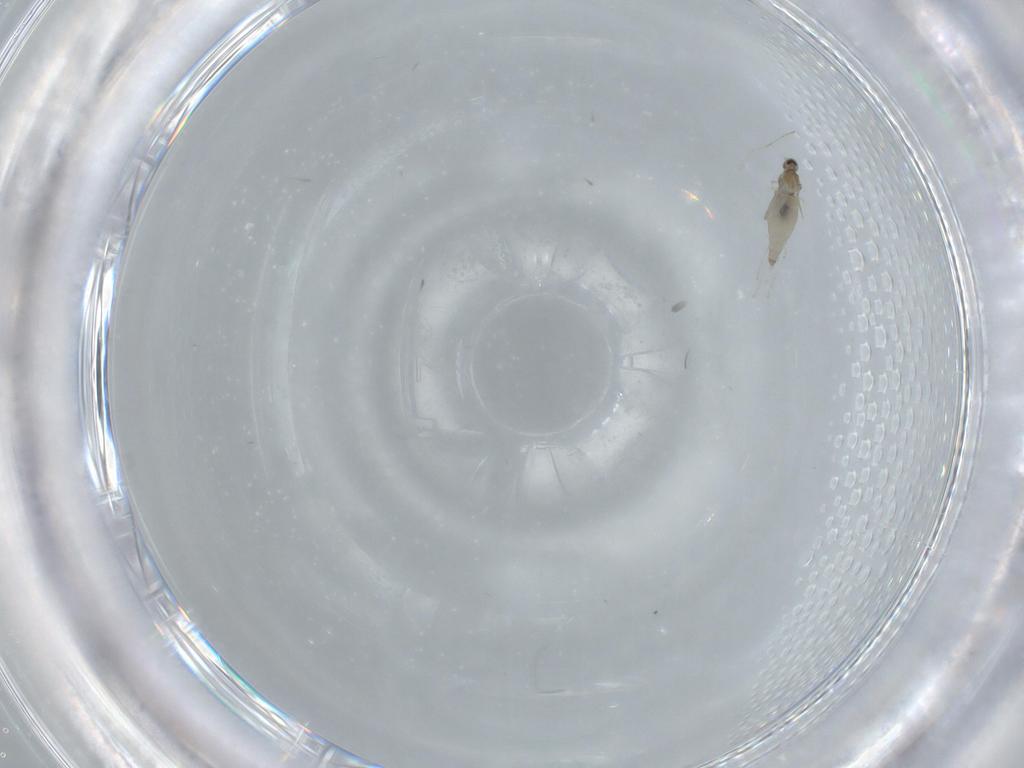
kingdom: Animalia
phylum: Arthropoda
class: Insecta
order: Diptera
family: Cecidomyiidae
